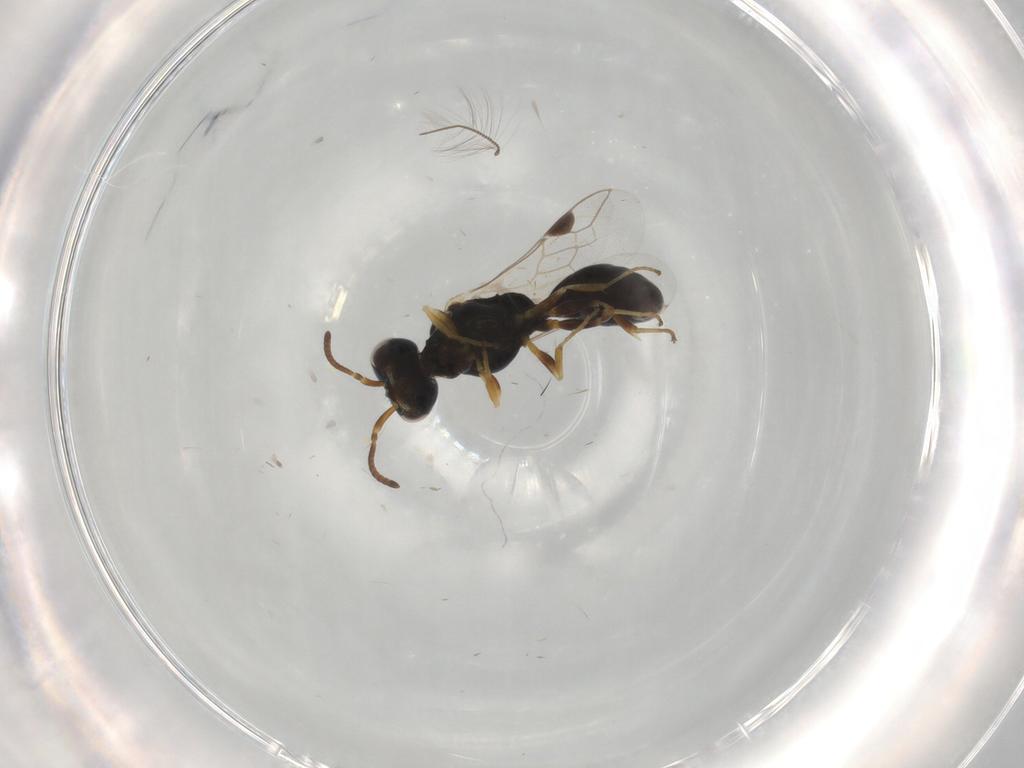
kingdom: Animalia
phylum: Arthropoda
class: Insecta
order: Hymenoptera
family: Pemphredonidae
